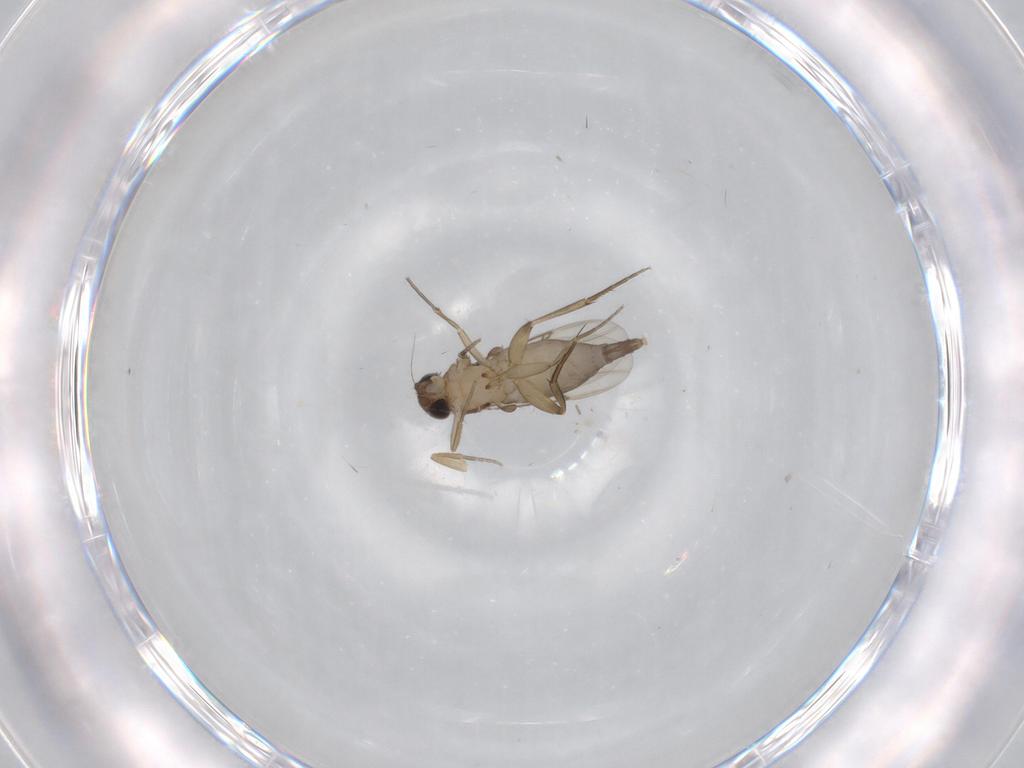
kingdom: Animalia
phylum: Arthropoda
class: Insecta
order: Diptera
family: Phoridae
